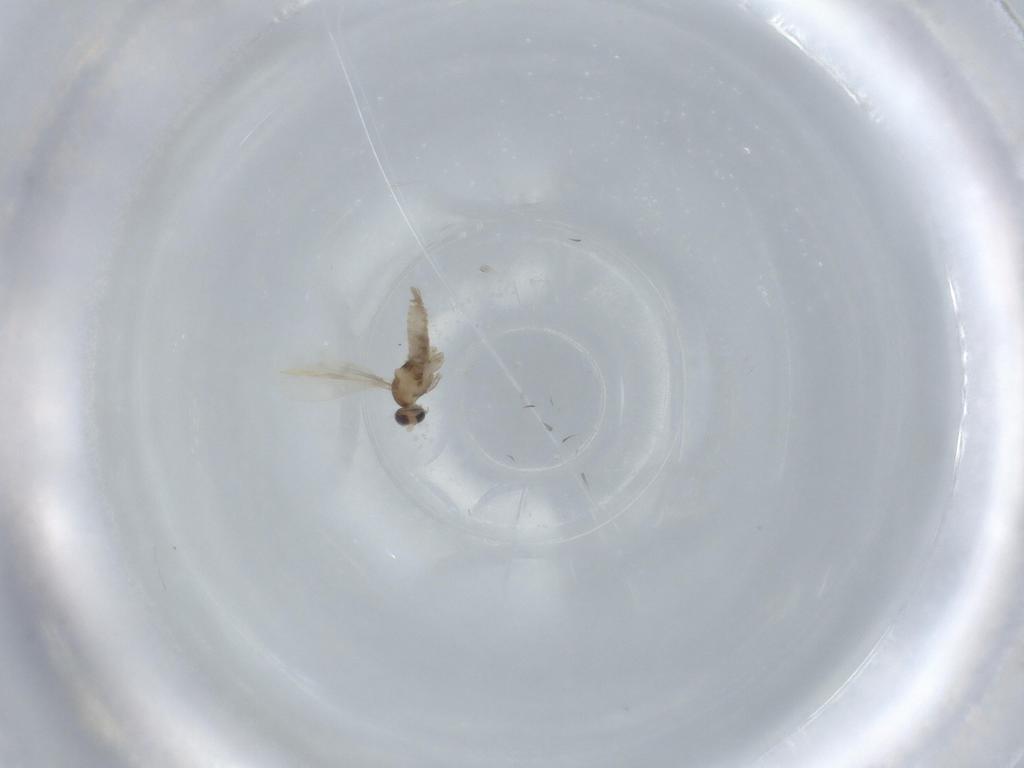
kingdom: Animalia
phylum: Arthropoda
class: Insecta
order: Diptera
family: Cecidomyiidae
